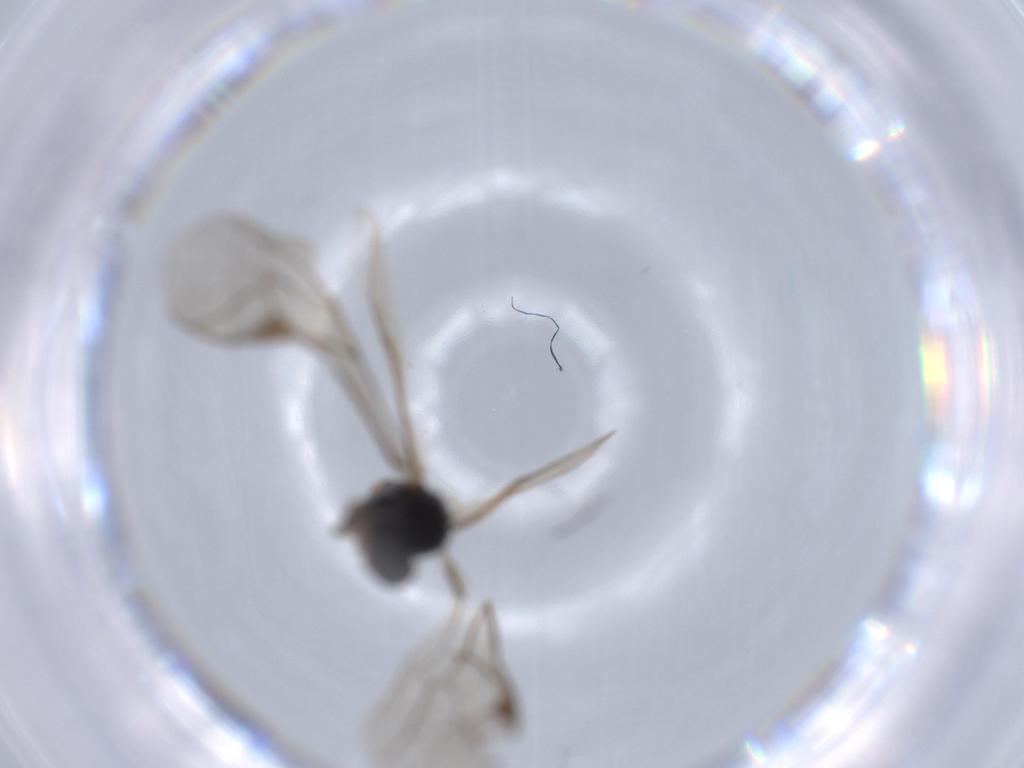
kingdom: Animalia
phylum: Arthropoda
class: Insecta
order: Hymenoptera
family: Ichneumonidae
